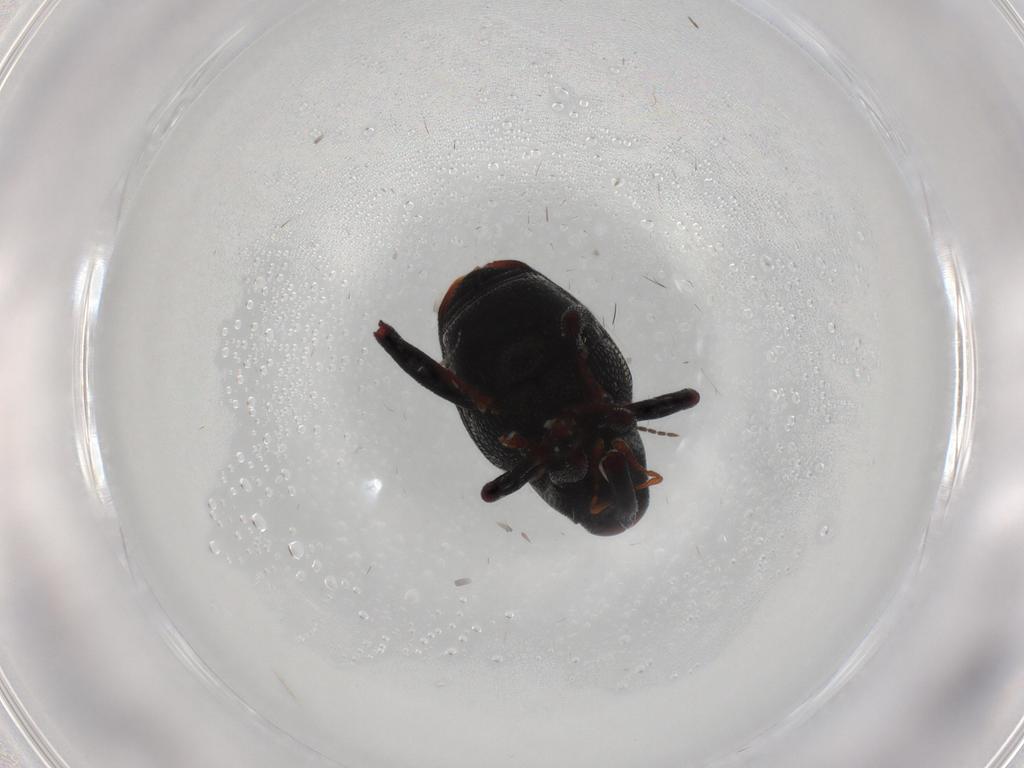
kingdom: Animalia
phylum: Arthropoda
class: Insecta
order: Coleoptera
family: Curculionidae
